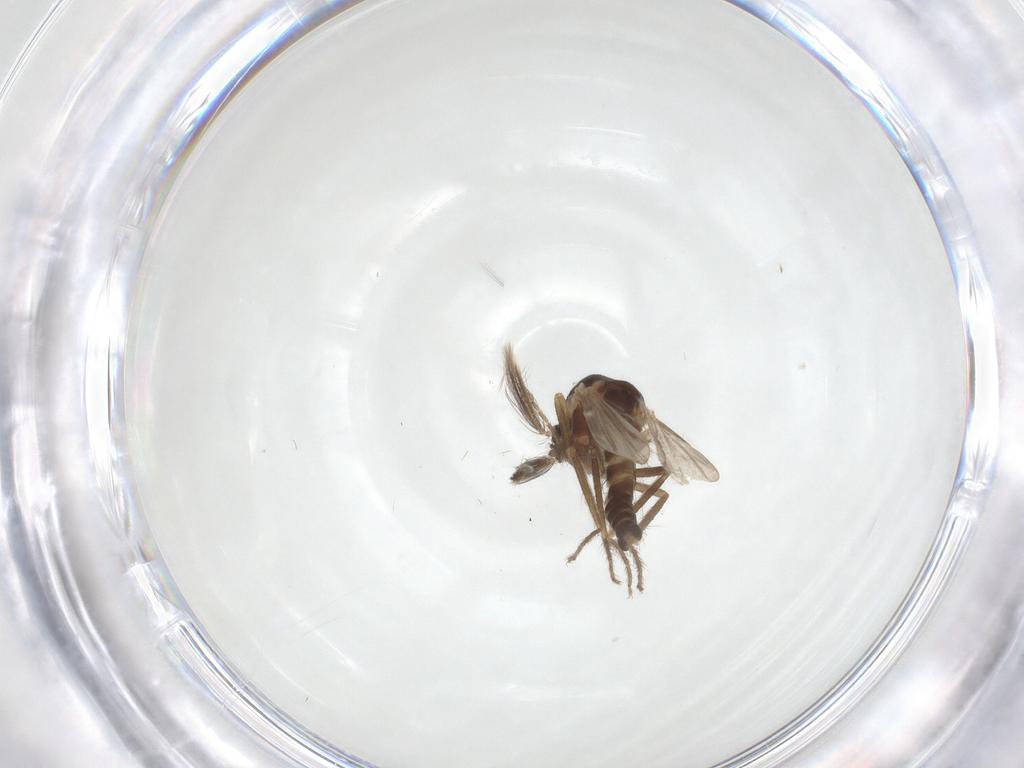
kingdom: Animalia
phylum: Arthropoda
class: Insecta
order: Diptera
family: Ceratopogonidae
